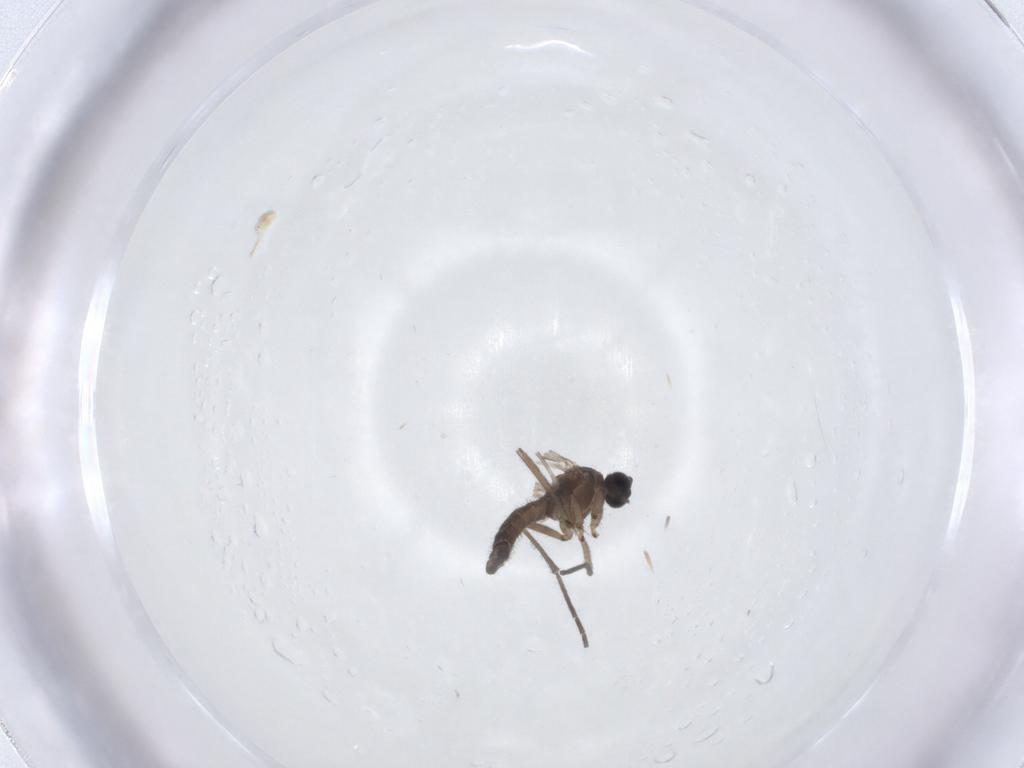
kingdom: Animalia
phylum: Arthropoda
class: Insecta
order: Diptera
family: Sciaridae
